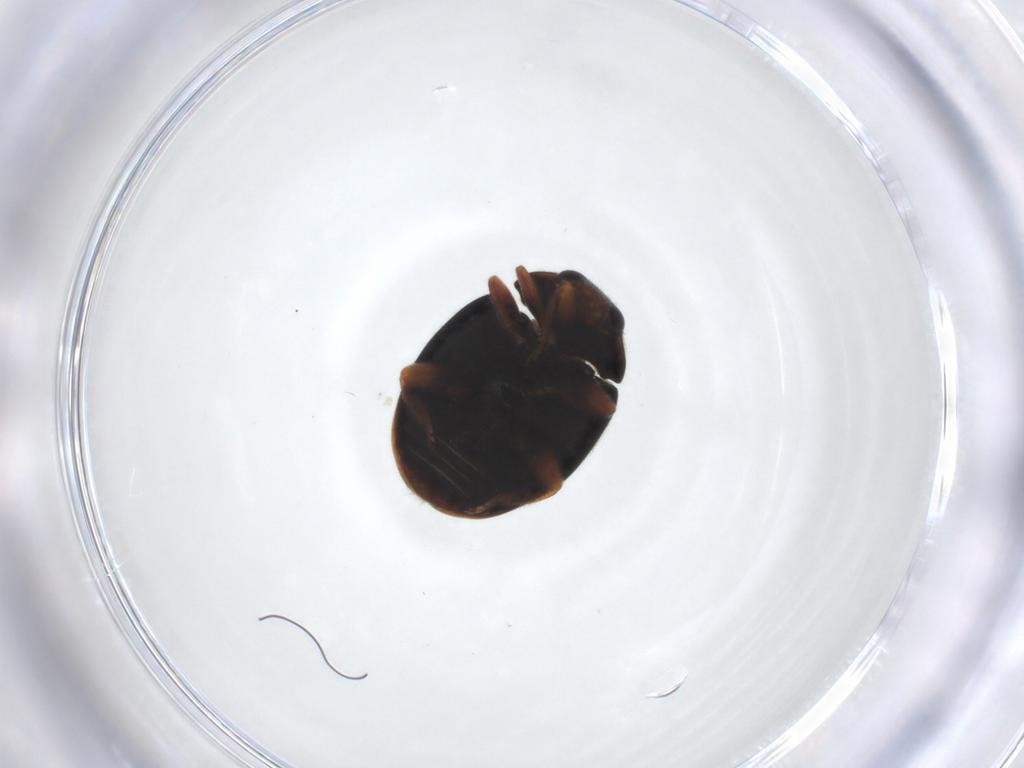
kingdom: Animalia
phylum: Arthropoda
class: Insecta
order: Coleoptera
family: Coccinellidae
